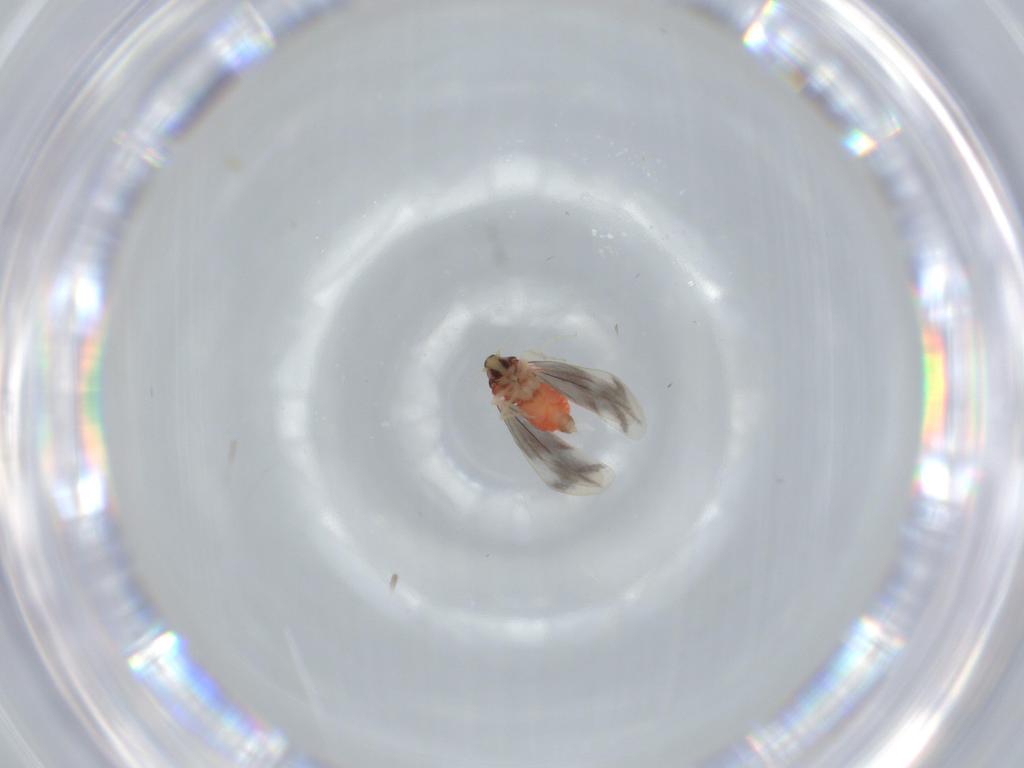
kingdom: Animalia
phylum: Arthropoda
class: Insecta
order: Hemiptera
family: Aleyrodidae
